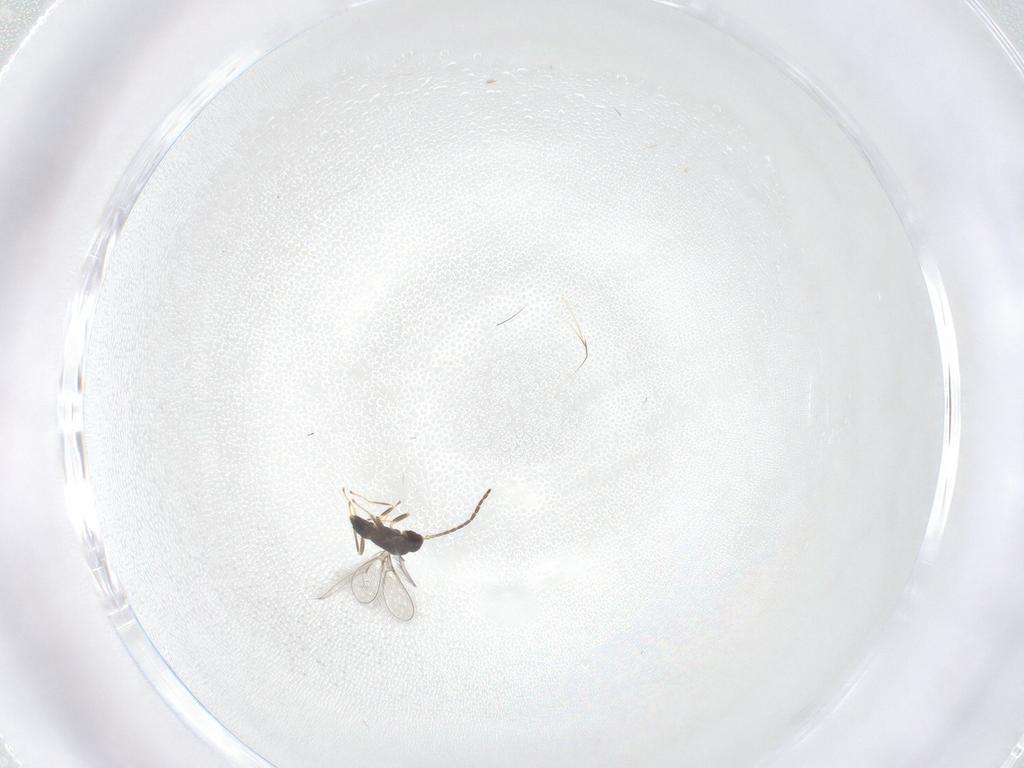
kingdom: Animalia
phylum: Arthropoda
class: Insecta
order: Hymenoptera
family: Mymaridae
